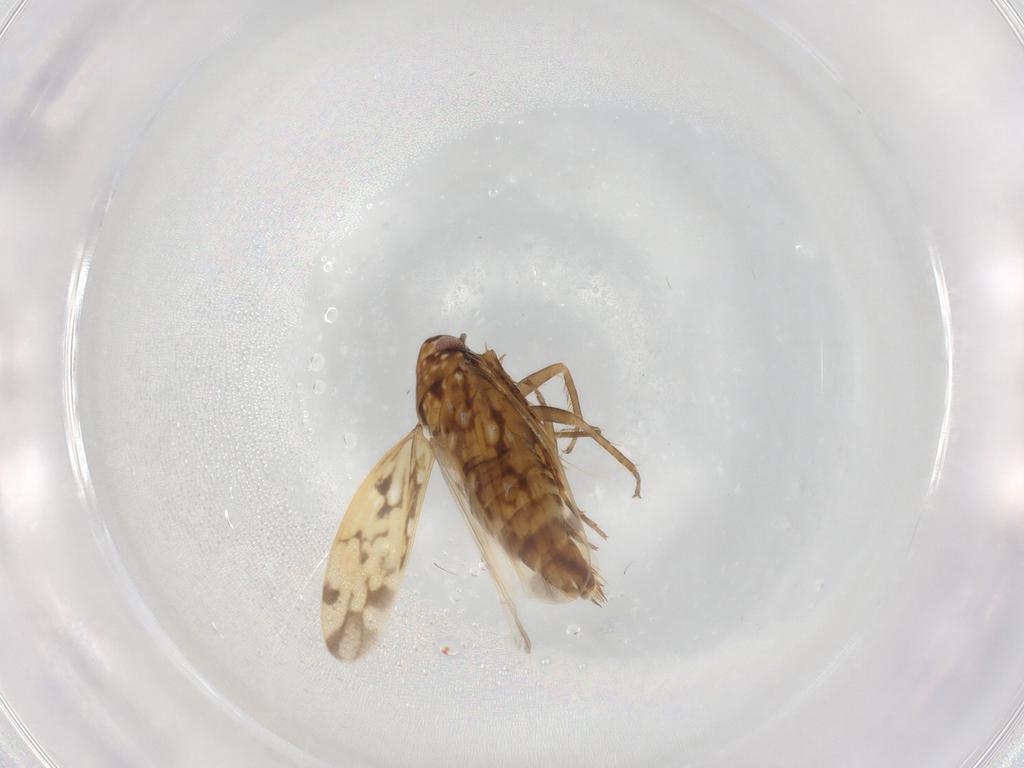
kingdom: Animalia
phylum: Arthropoda
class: Insecta
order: Hemiptera
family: Cicadellidae
